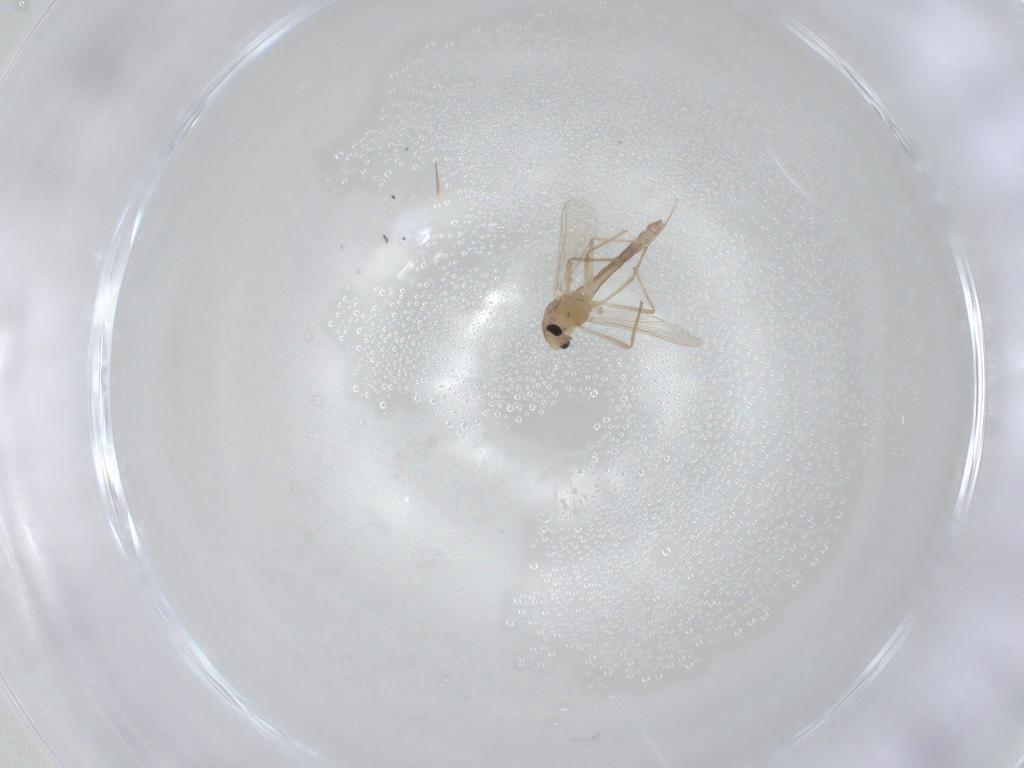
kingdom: Animalia
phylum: Arthropoda
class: Insecta
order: Diptera
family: Chironomidae
